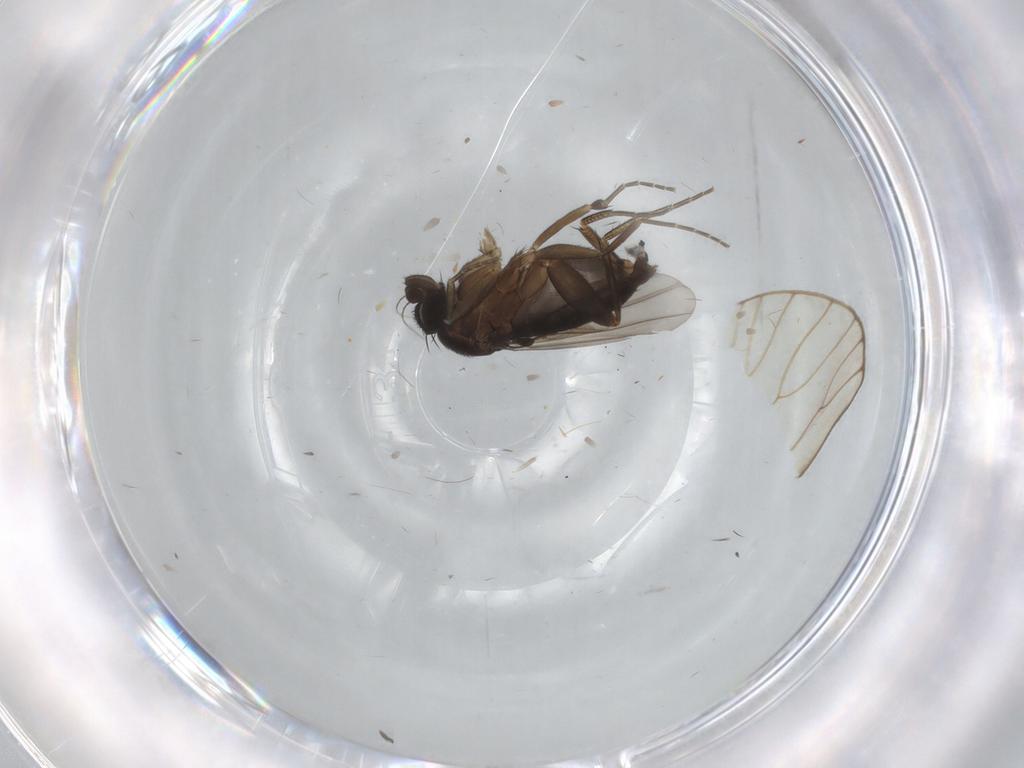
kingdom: Animalia
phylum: Arthropoda
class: Insecta
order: Diptera
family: Phoridae
